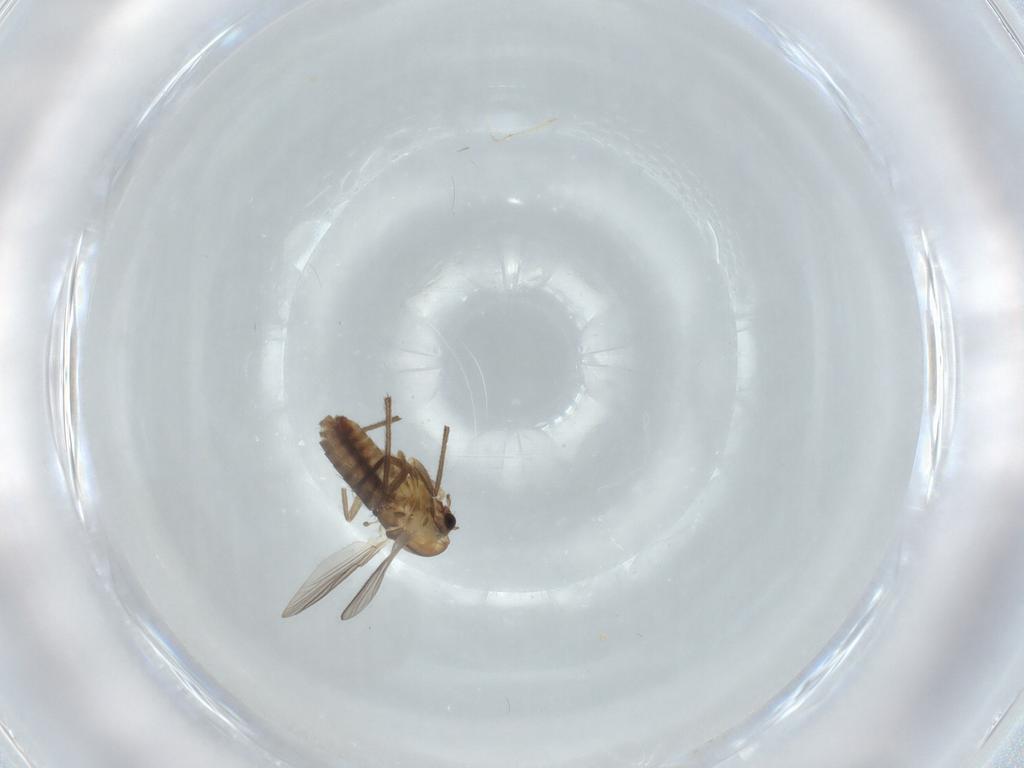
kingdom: Animalia
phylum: Arthropoda
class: Insecta
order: Diptera
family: Chironomidae
